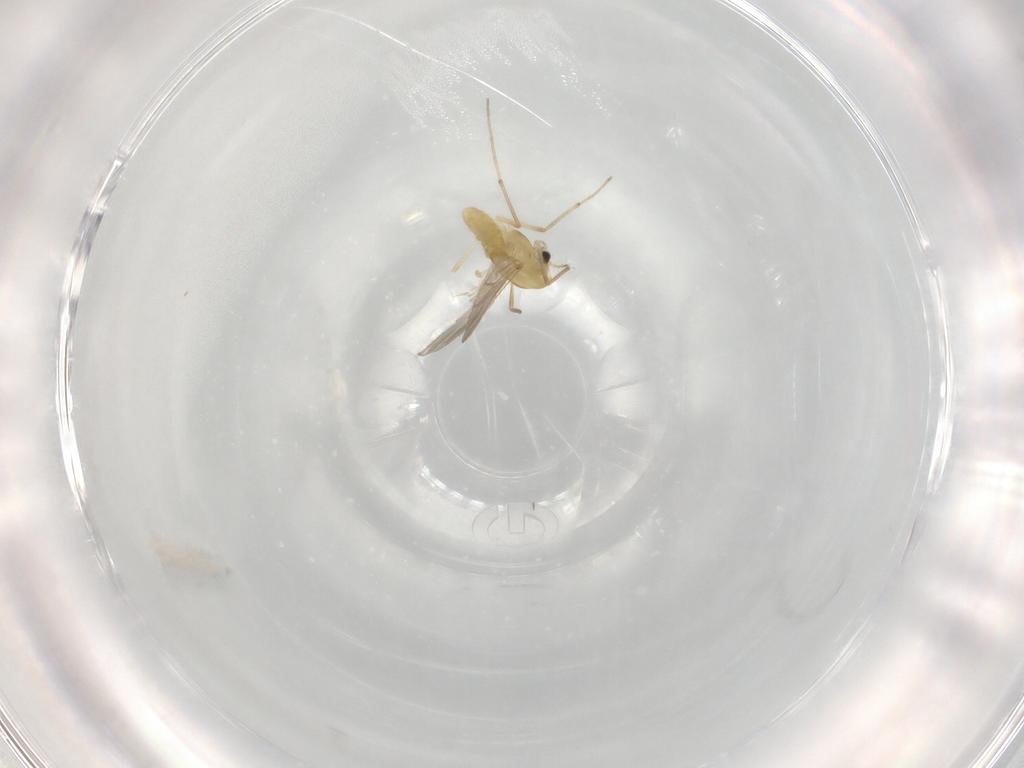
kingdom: Animalia
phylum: Arthropoda
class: Insecta
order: Diptera
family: Chironomidae
